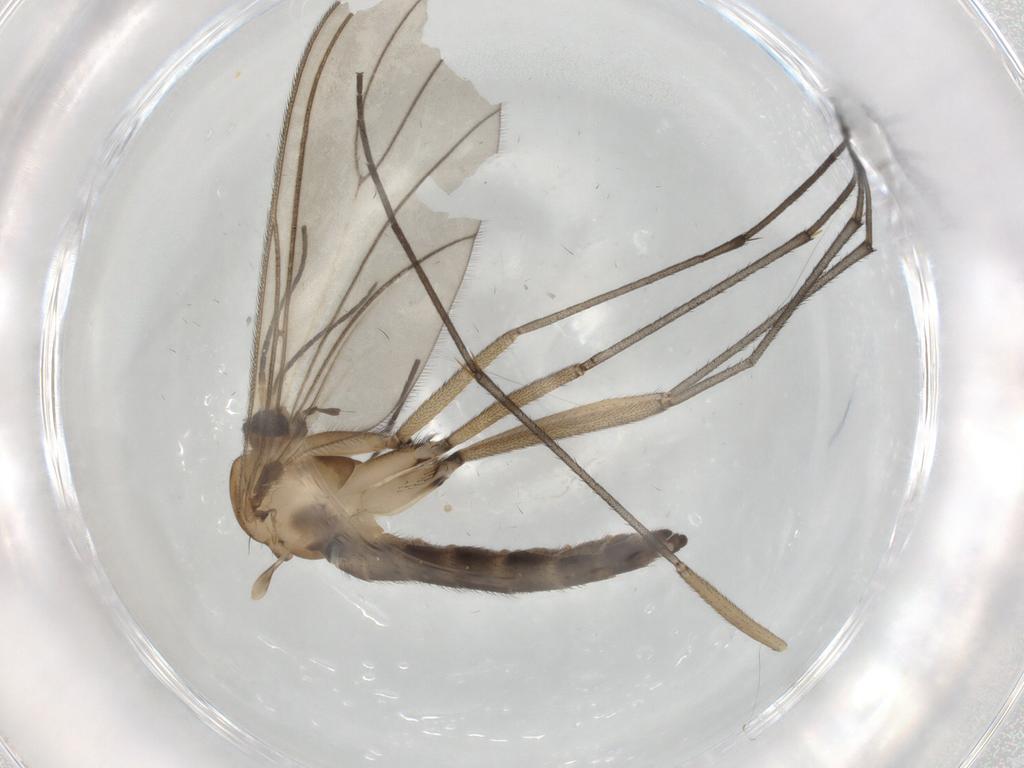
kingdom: Animalia
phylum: Arthropoda
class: Insecta
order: Diptera
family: Sciaridae
